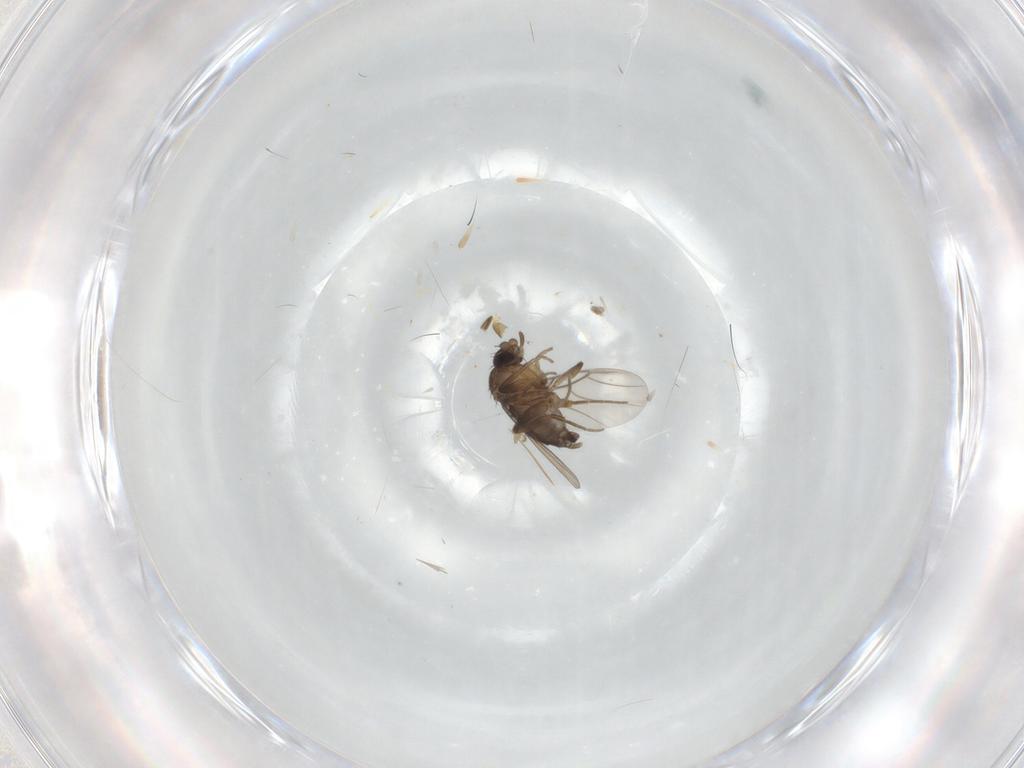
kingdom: Animalia
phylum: Arthropoda
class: Insecta
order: Diptera
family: Phoridae
